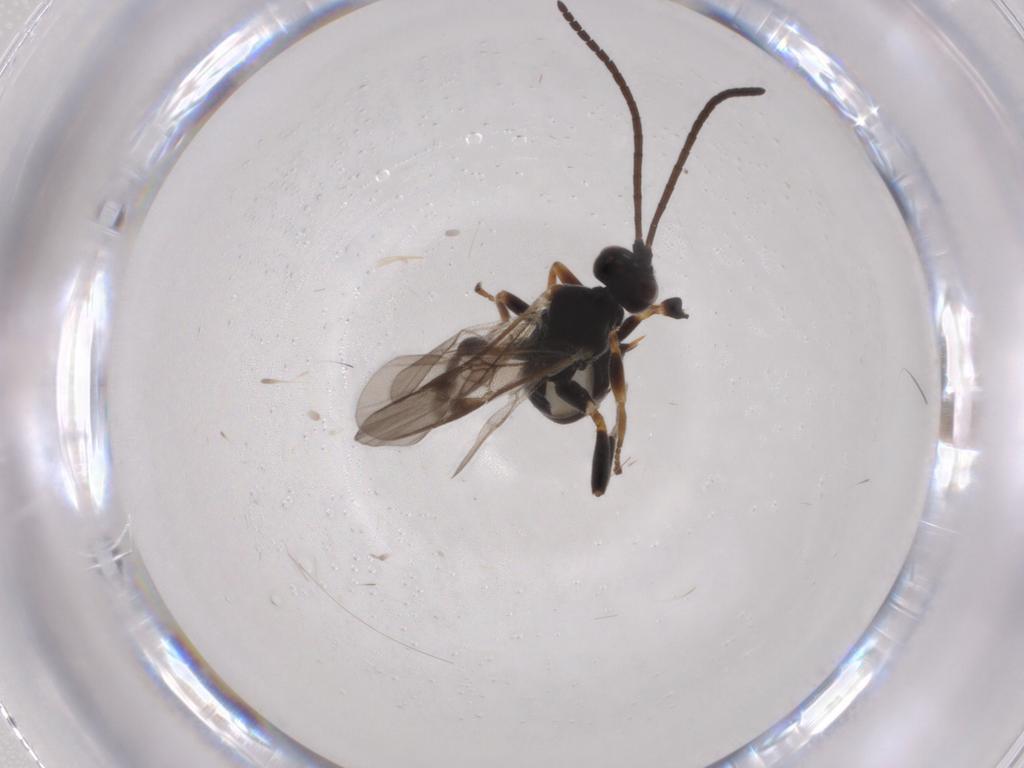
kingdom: Animalia
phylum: Arthropoda
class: Insecta
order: Hymenoptera
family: Braconidae
